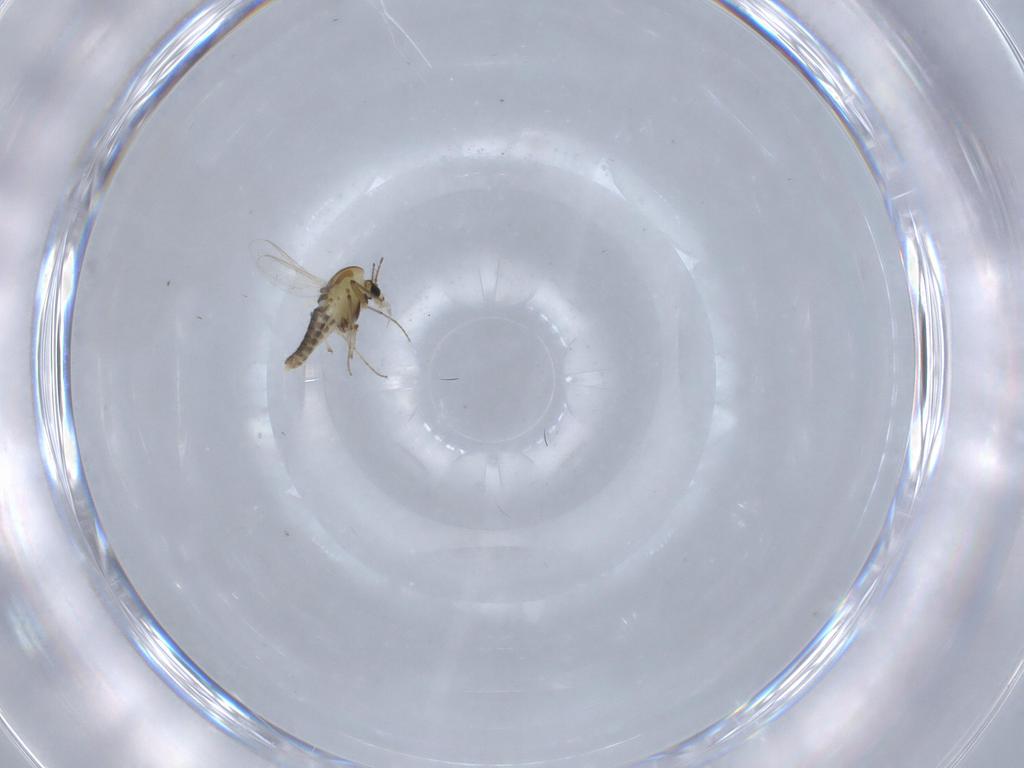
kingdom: Animalia
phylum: Arthropoda
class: Insecta
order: Diptera
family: Chironomidae
